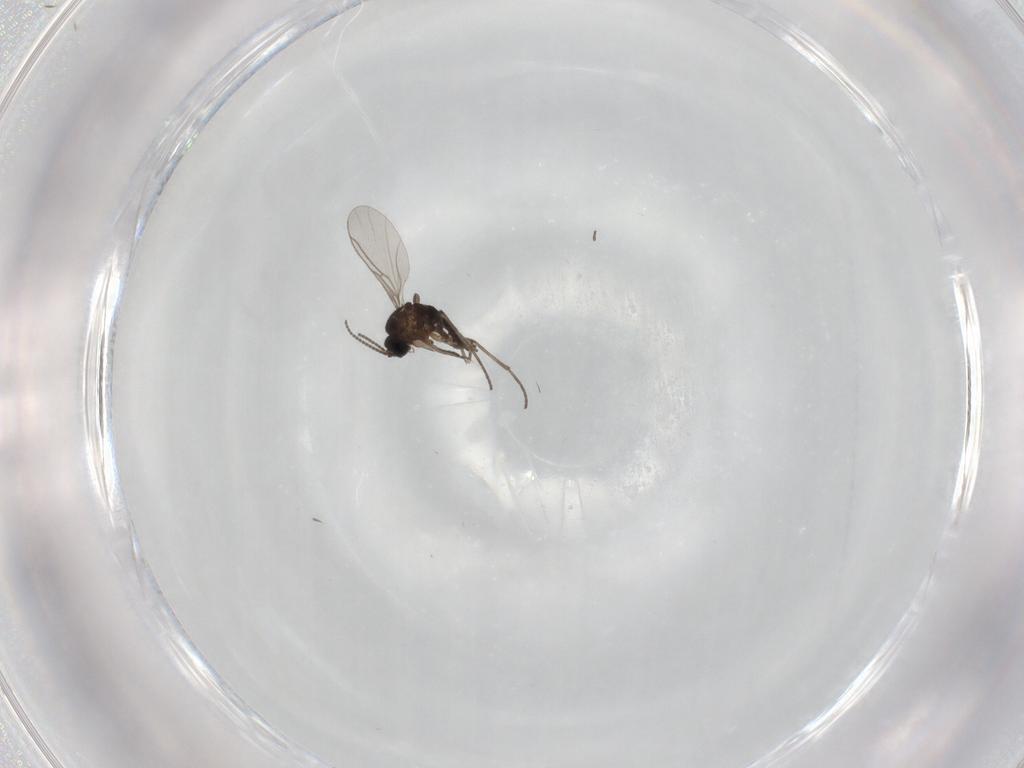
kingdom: Animalia
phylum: Arthropoda
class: Insecta
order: Diptera
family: Sciaridae
